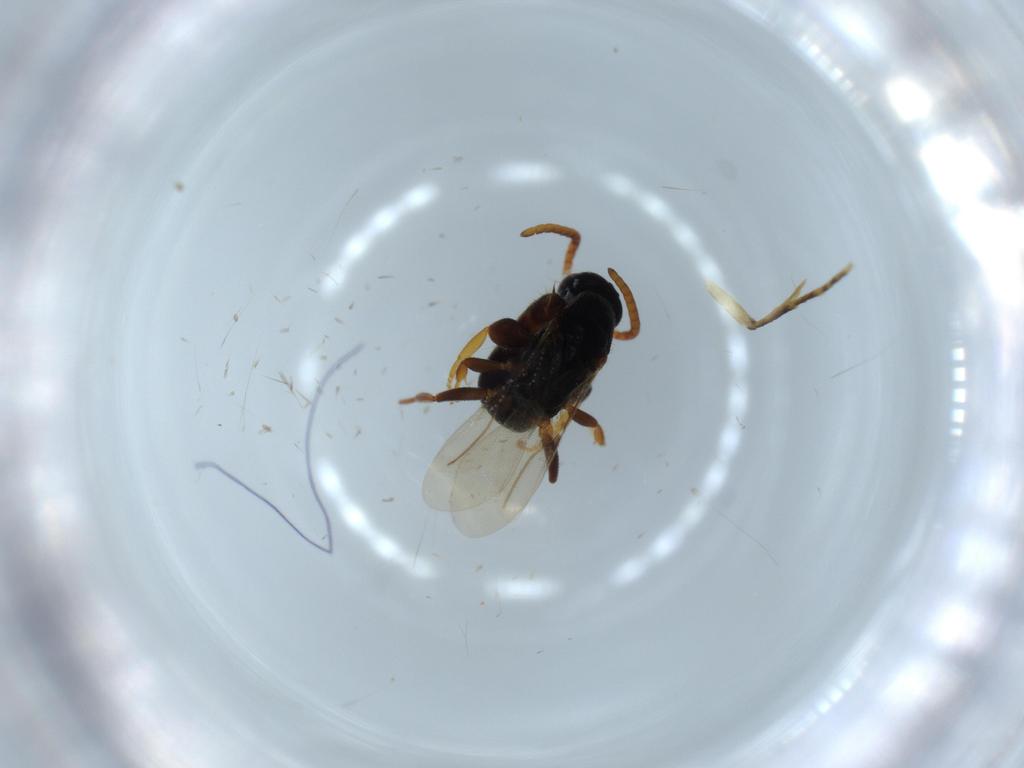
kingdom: Animalia
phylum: Arthropoda
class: Insecta
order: Hymenoptera
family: Bethylidae
